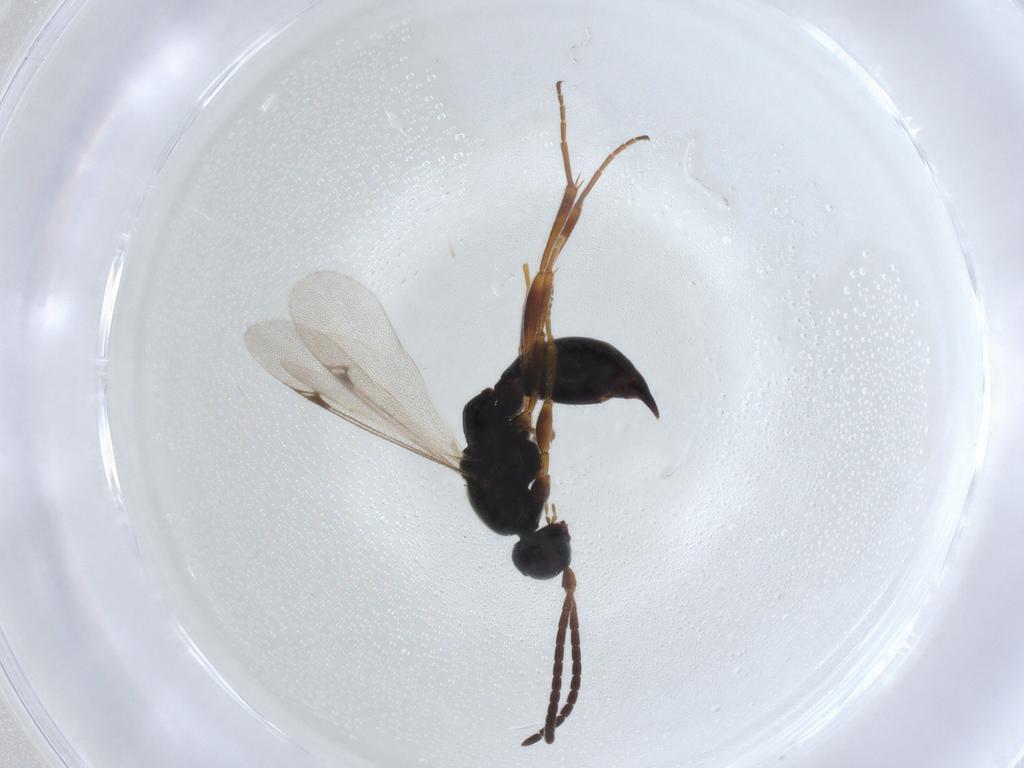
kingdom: Animalia
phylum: Arthropoda
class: Insecta
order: Hymenoptera
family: Proctotrupidae
